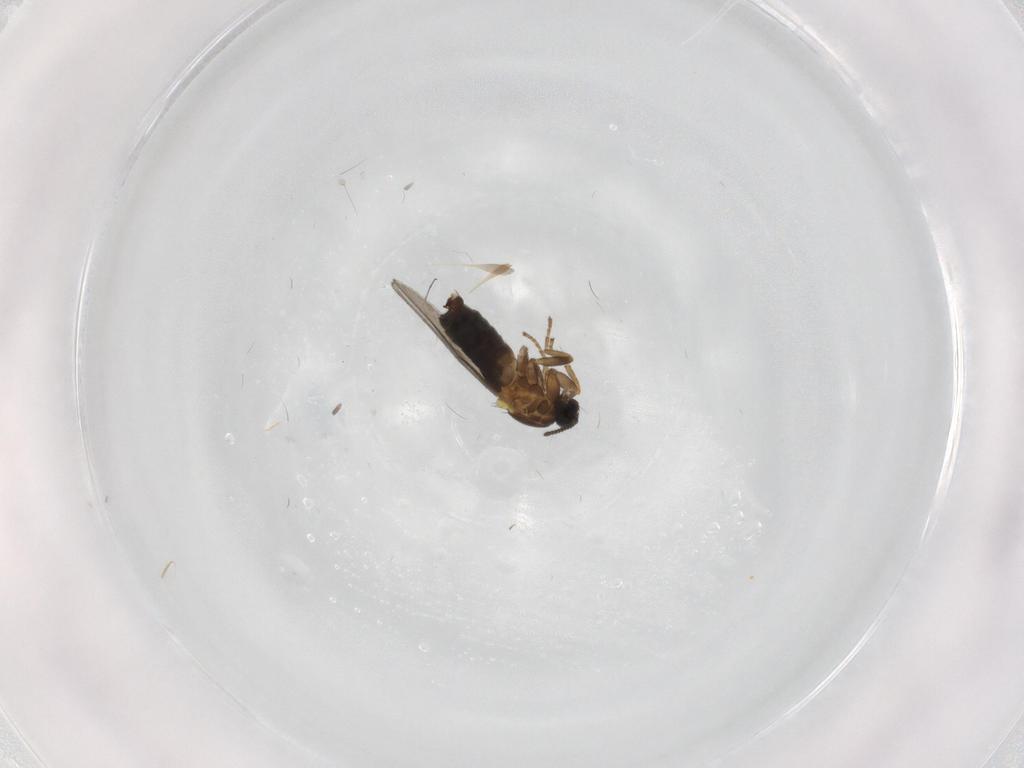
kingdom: Animalia
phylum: Arthropoda
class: Insecta
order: Diptera
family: Scatopsidae
